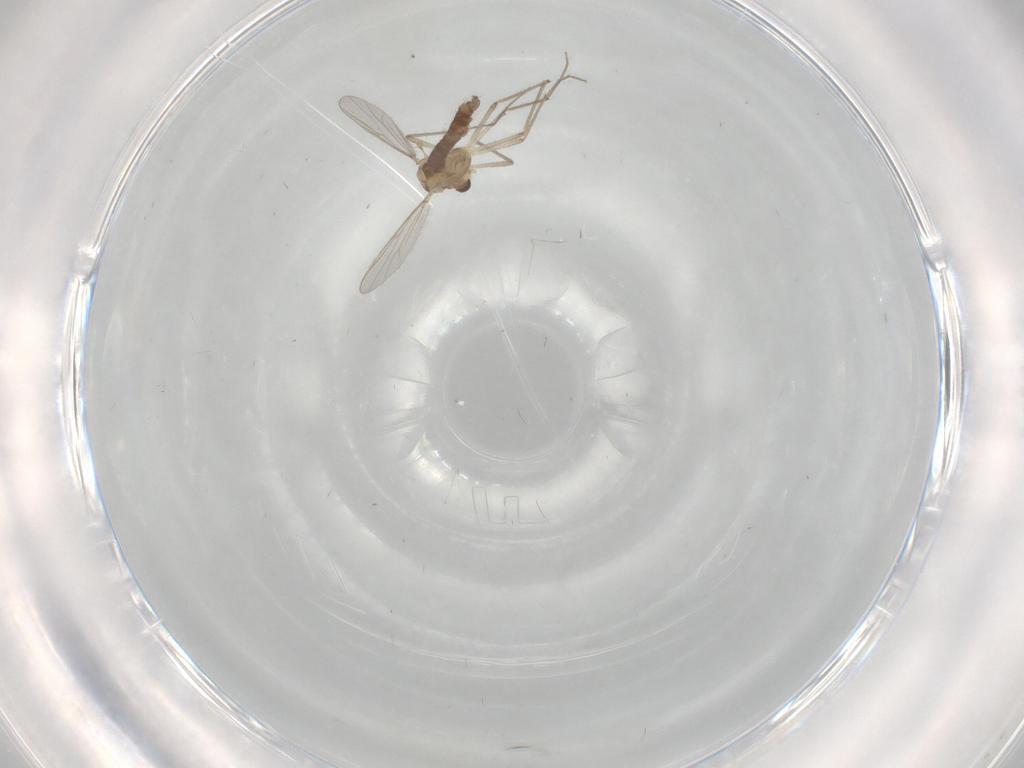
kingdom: Animalia
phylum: Arthropoda
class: Insecta
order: Diptera
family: Chironomidae
